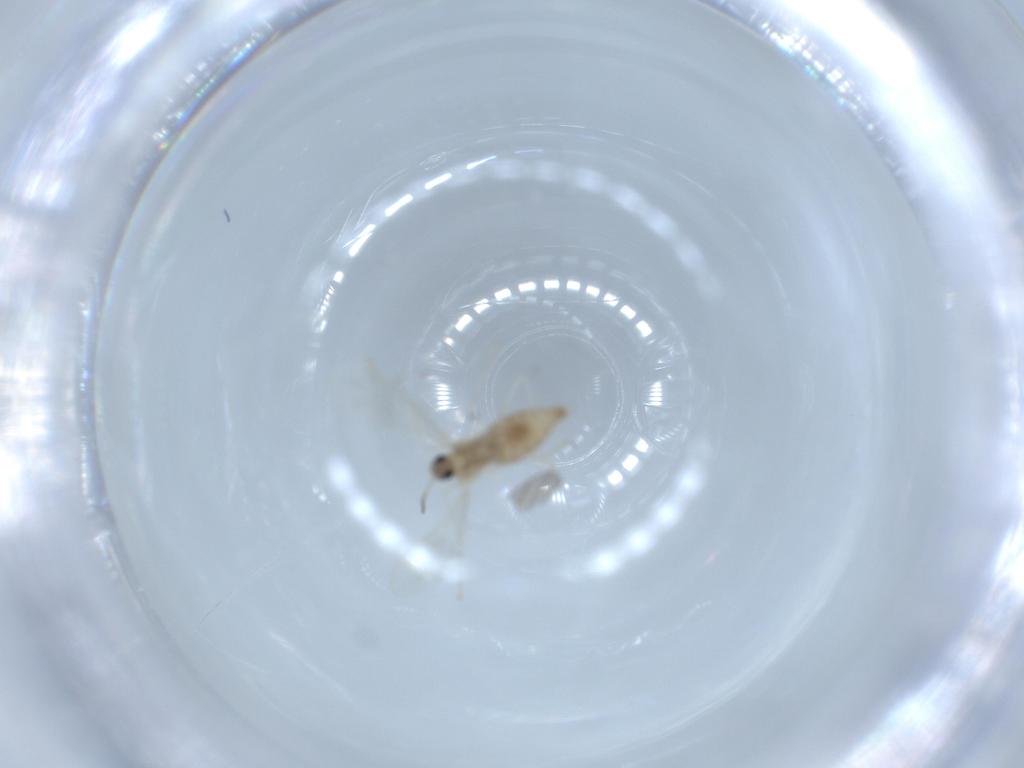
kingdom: Animalia
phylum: Arthropoda
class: Insecta
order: Diptera
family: Cecidomyiidae
